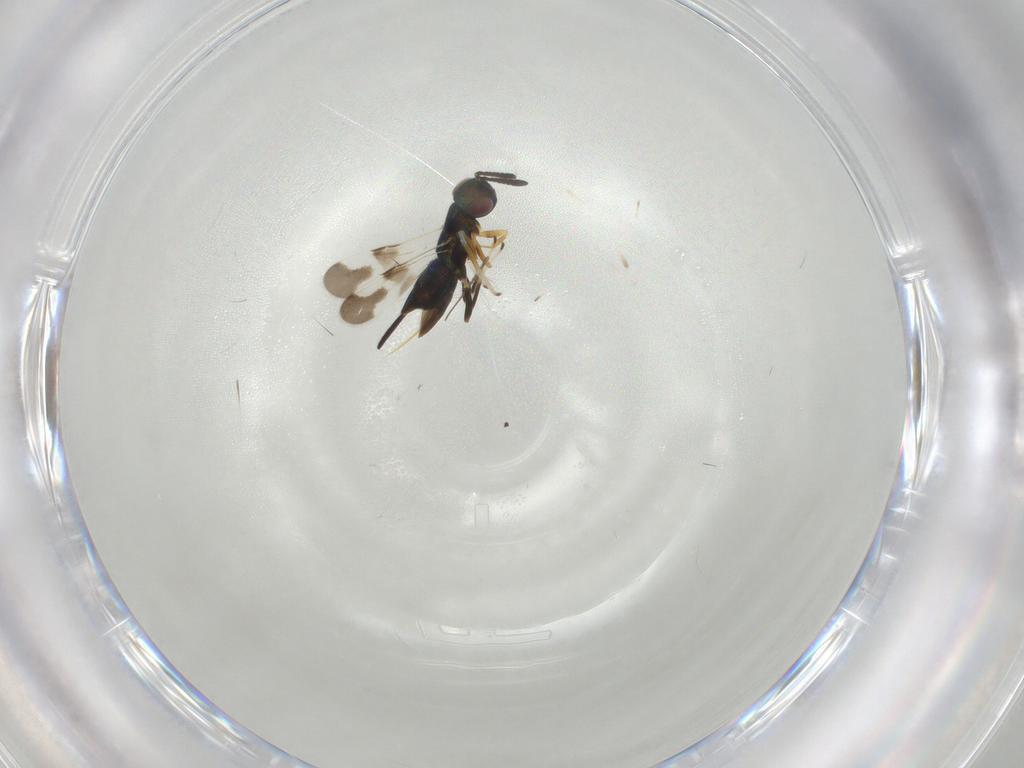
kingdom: Animalia
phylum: Arthropoda
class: Insecta
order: Hymenoptera
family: Encyrtidae
